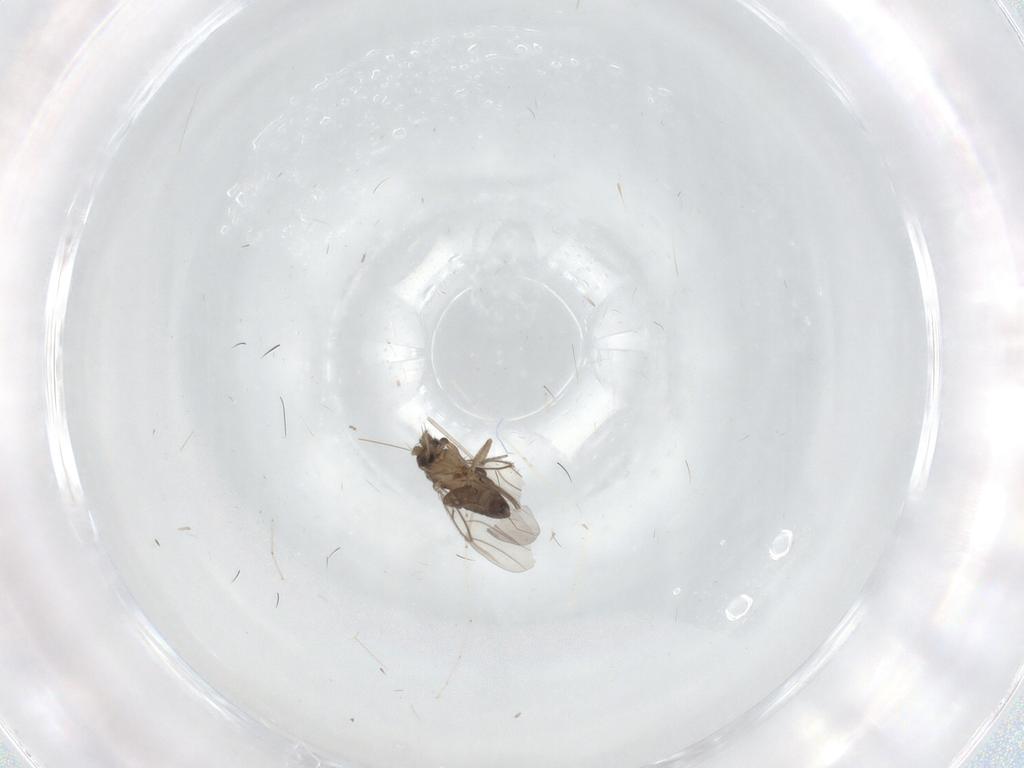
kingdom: Animalia
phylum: Arthropoda
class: Insecta
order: Diptera
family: Phoridae
